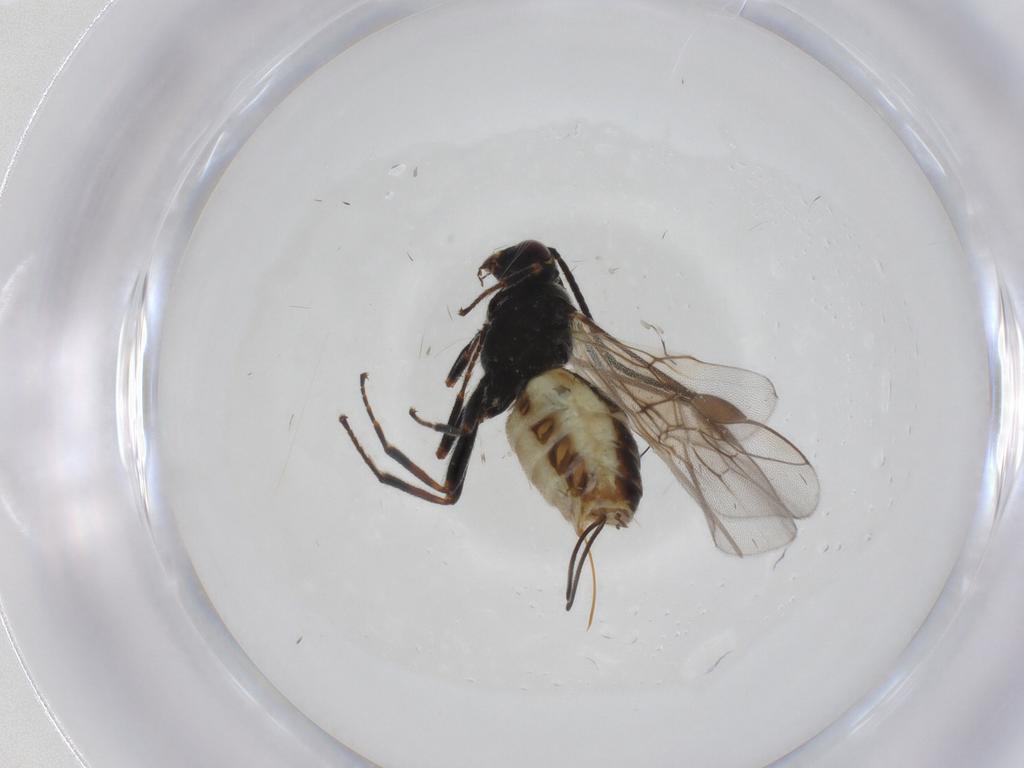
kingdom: Animalia
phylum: Arthropoda
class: Insecta
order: Hymenoptera
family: Braconidae
